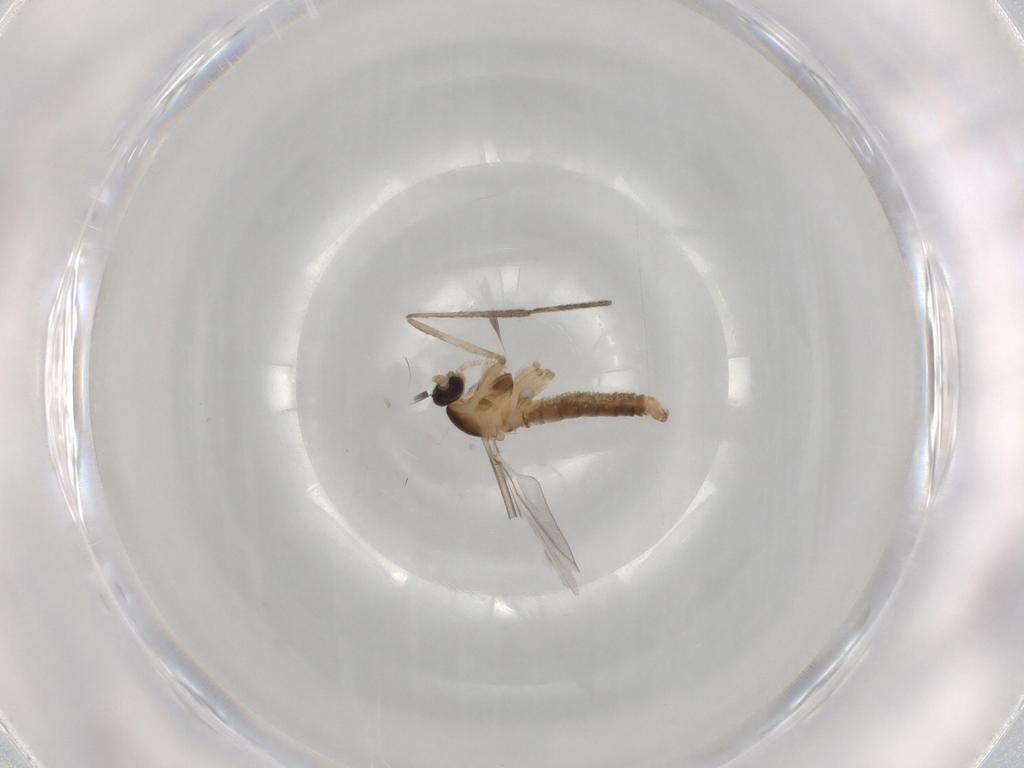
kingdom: Animalia
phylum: Arthropoda
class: Insecta
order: Diptera
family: Cecidomyiidae
